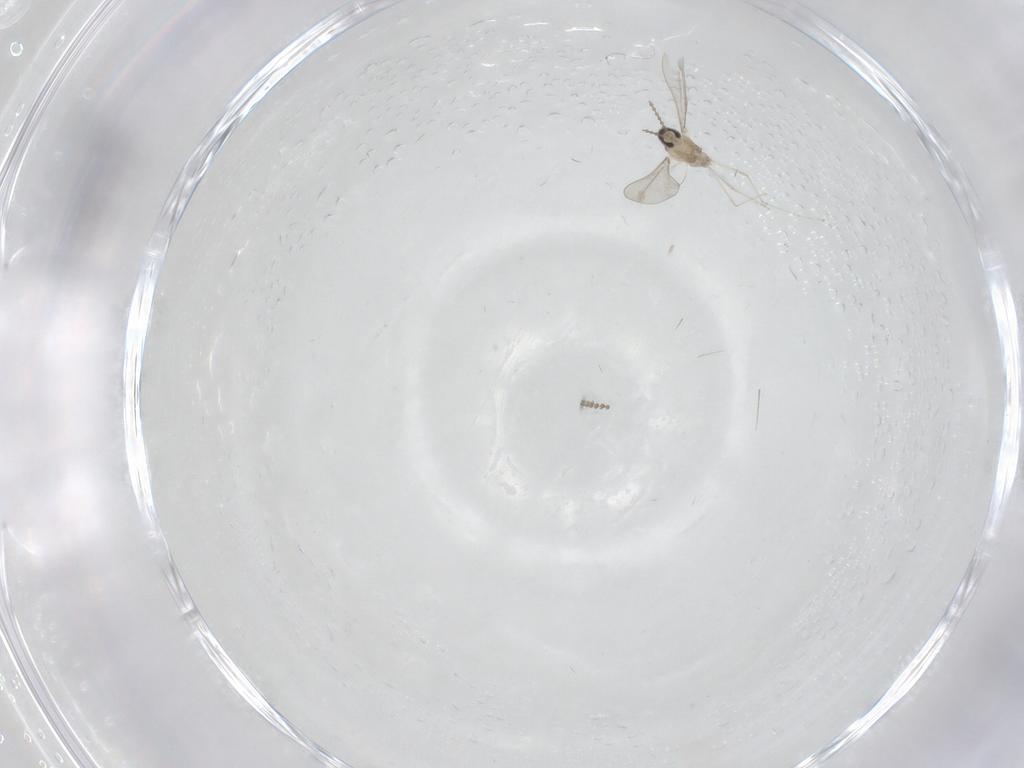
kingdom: Animalia
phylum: Arthropoda
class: Insecta
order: Diptera
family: Cecidomyiidae
